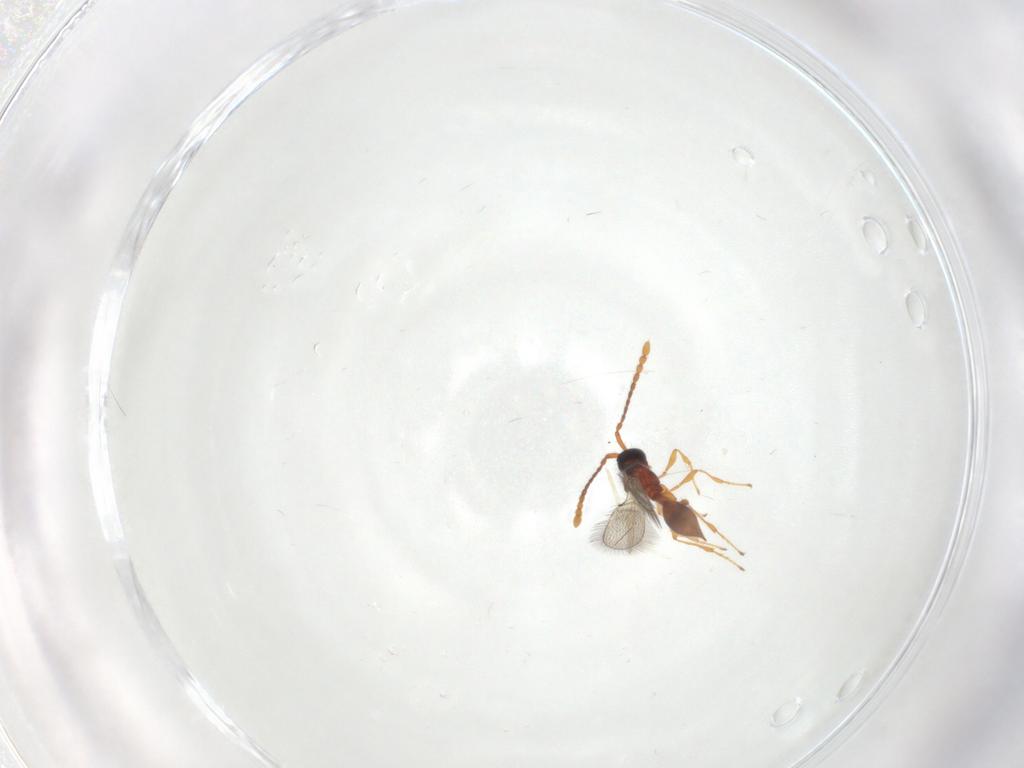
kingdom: Animalia
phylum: Arthropoda
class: Insecta
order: Hymenoptera
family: Diapriidae
